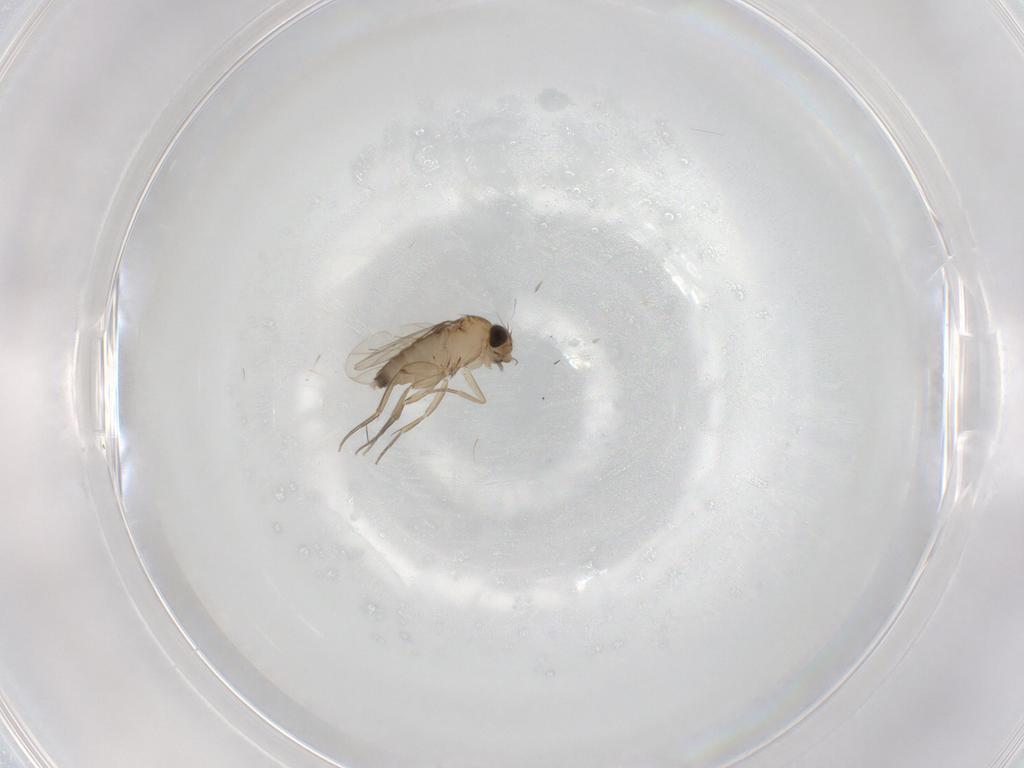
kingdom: Animalia
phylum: Arthropoda
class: Insecta
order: Diptera
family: Phoridae
